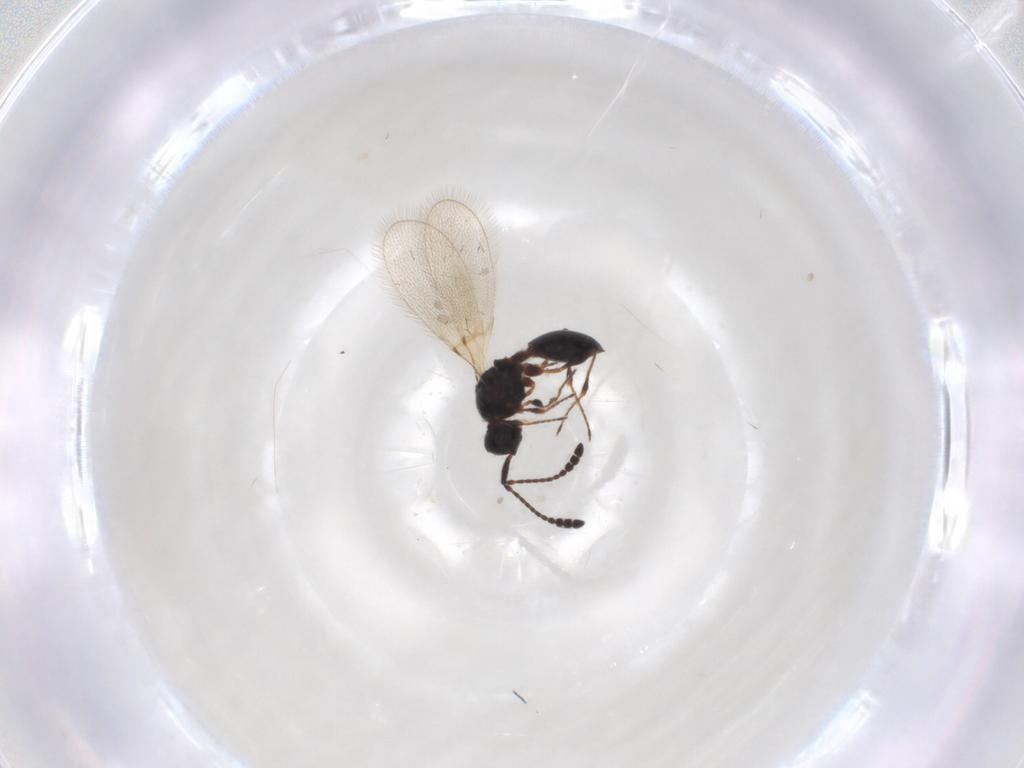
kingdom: Animalia
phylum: Arthropoda
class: Insecta
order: Hymenoptera
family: Diapriidae
